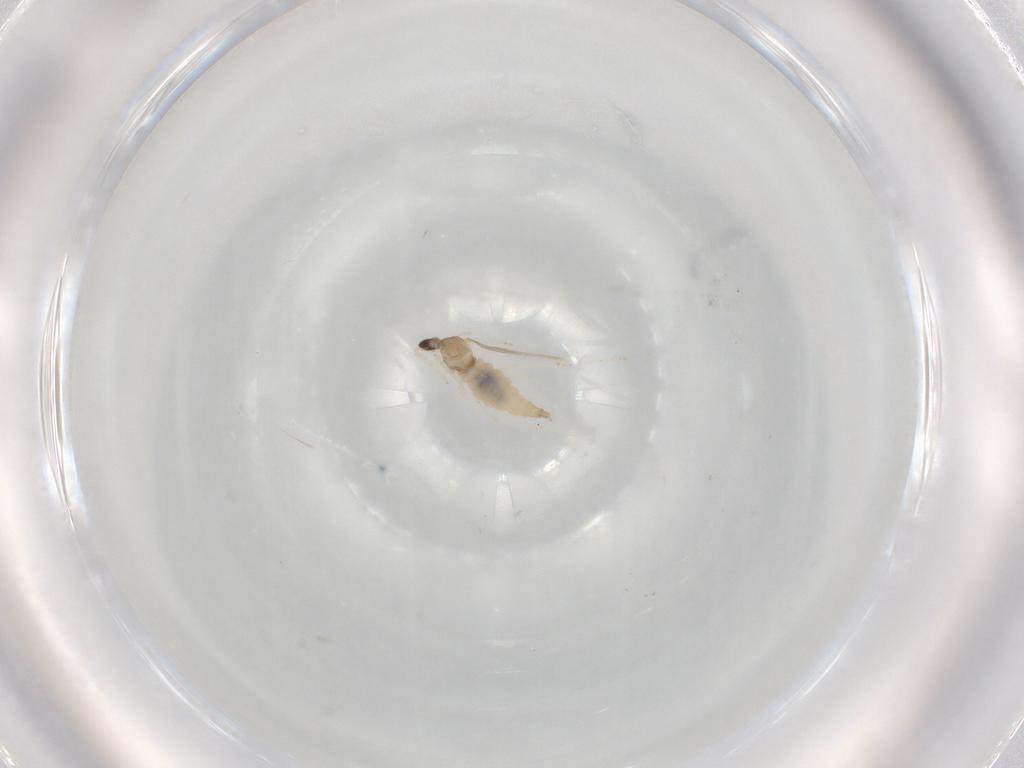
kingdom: Animalia
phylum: Arthropoda
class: Insecta
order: Diptera
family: Cecidomyiidae
